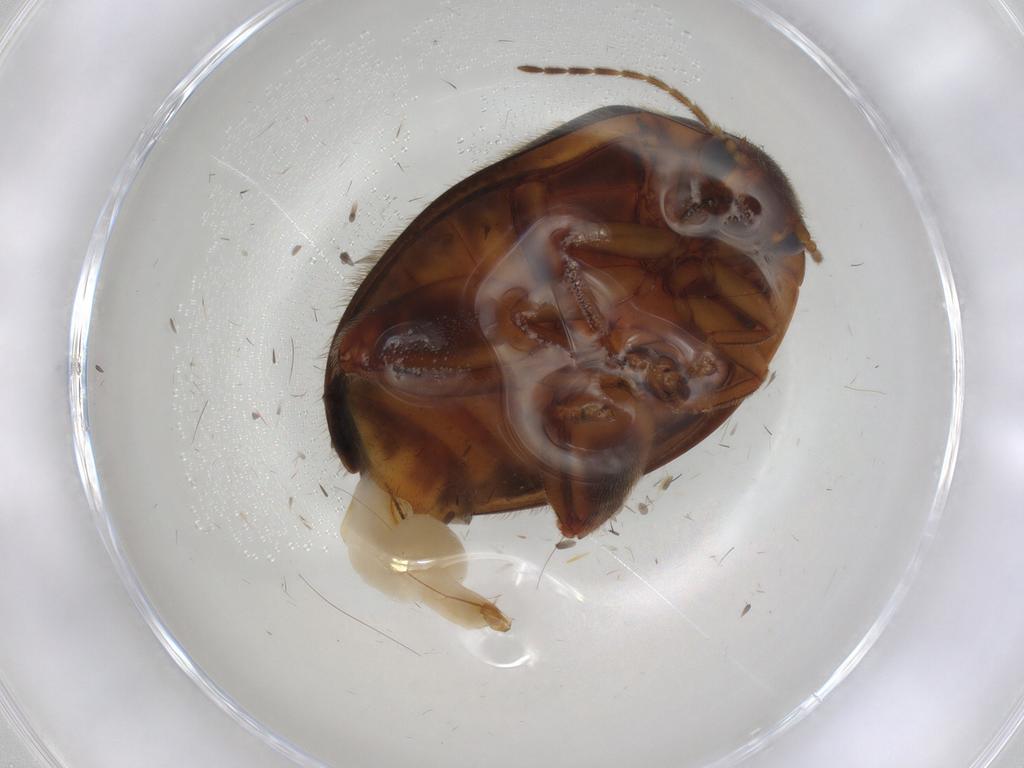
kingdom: Animalia
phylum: Arthropoda
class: Insecta
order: Coleoptera
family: Scirtidae
